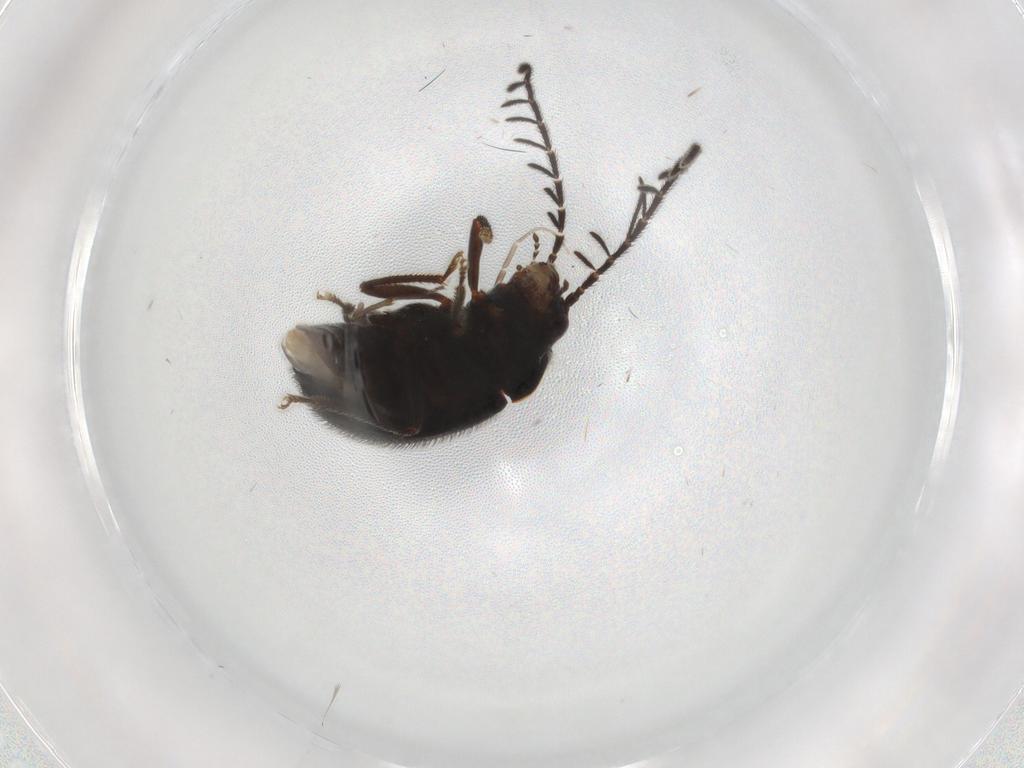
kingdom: Animalia
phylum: Arthropoda
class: Insecta
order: Coleoptera
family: Ptilodactylidae
